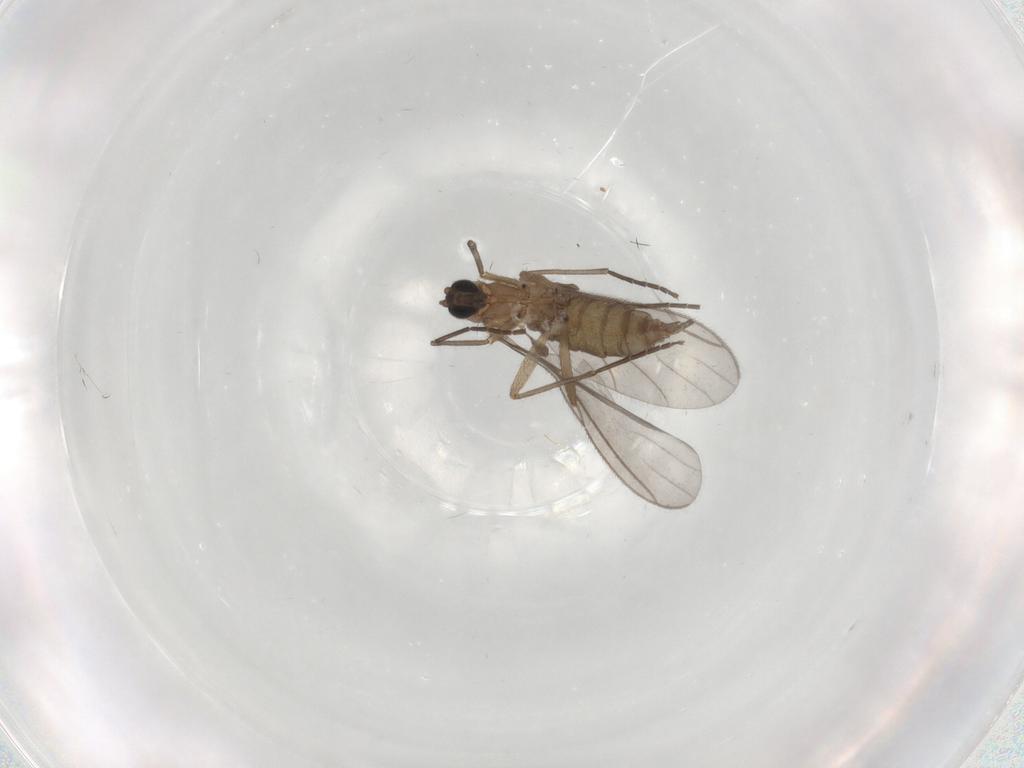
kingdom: Animalia
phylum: Arthropoda
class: Insecta
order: Diptera
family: Sciaridae
